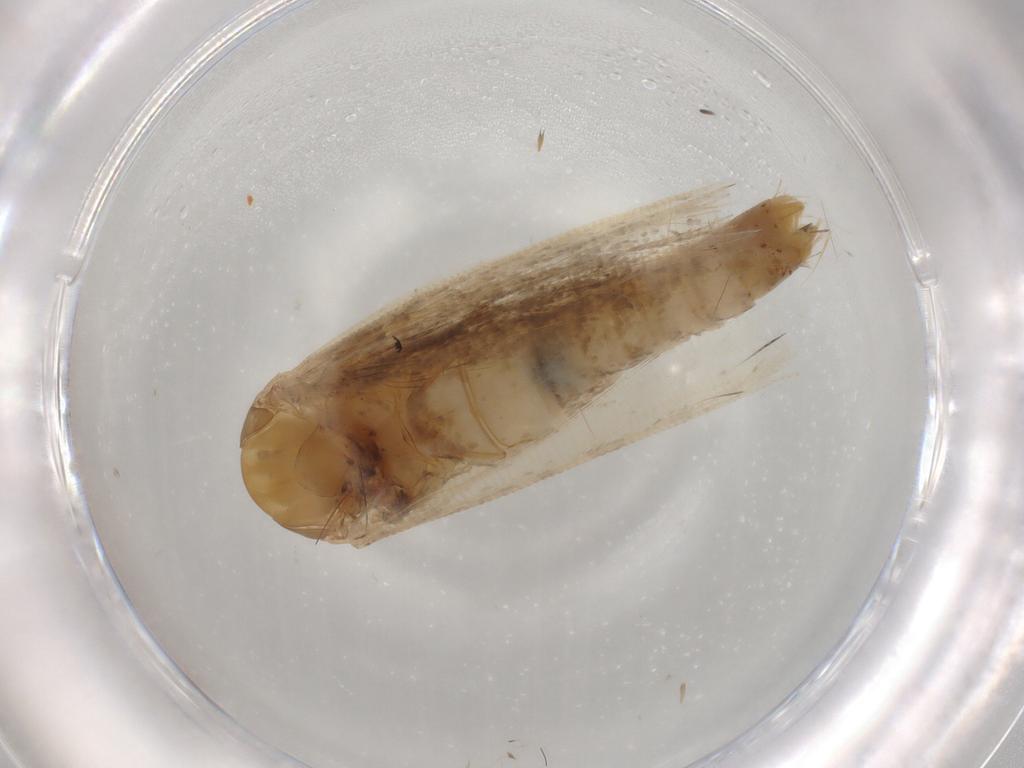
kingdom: Animalia
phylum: Arthropoda
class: Insecta
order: Lepidoptera
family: Tortricidae
